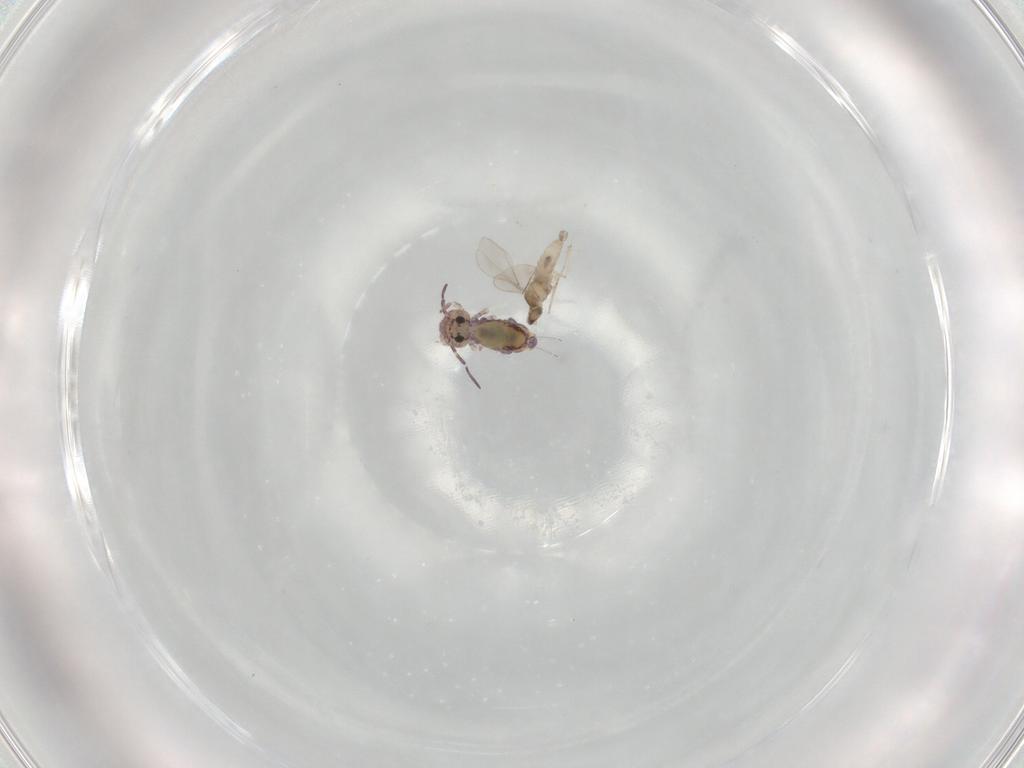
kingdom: Animalia
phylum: Arthropoda
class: Collembola
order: Symphypleona
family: Sminthuridae
